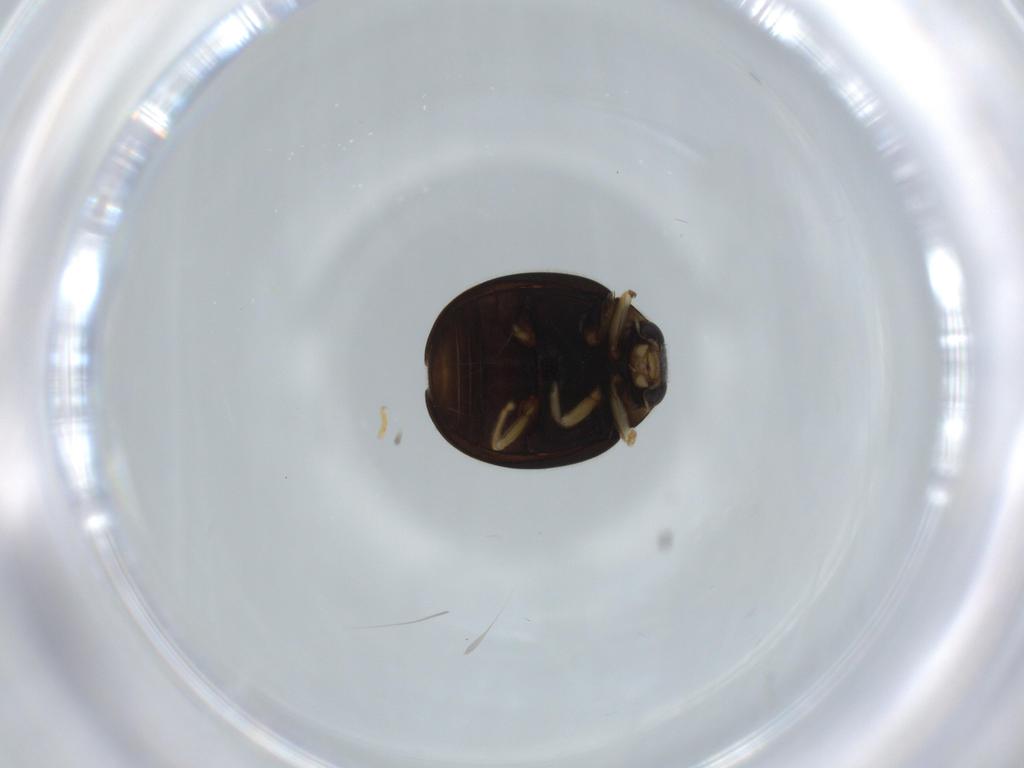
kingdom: Animalia
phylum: Arthropoda
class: Insecta
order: Coleoptera
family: Coccinellidae
